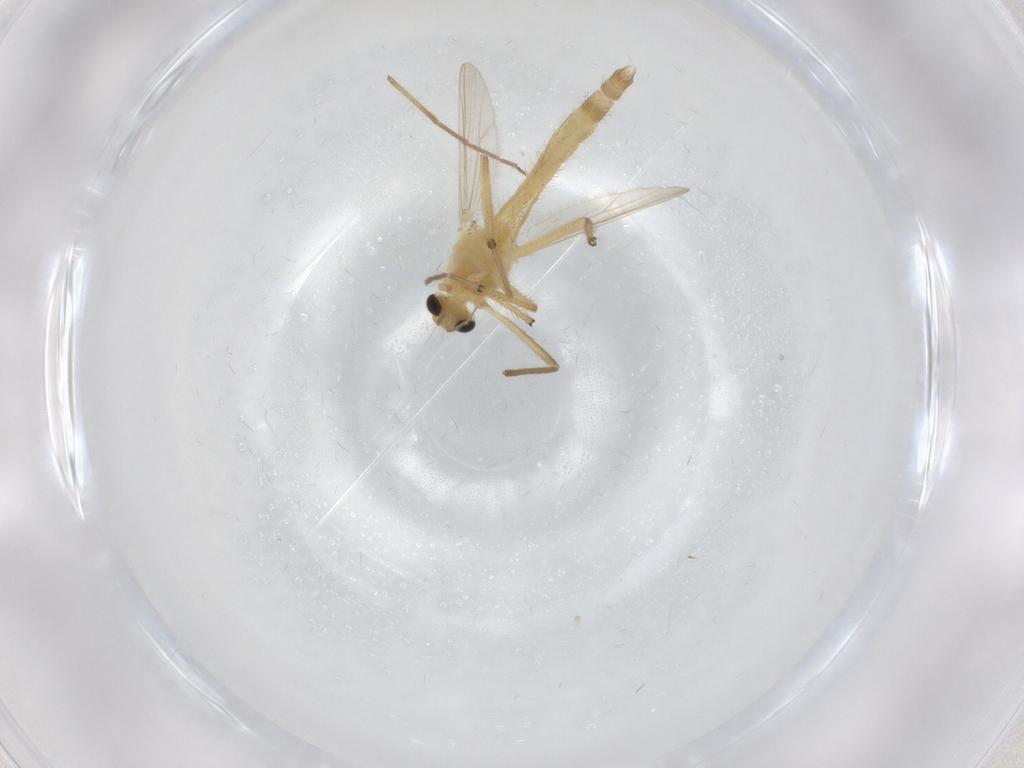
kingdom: Animalia
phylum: Arthropoda
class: Insecta
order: Diptera
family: Chironomidae
